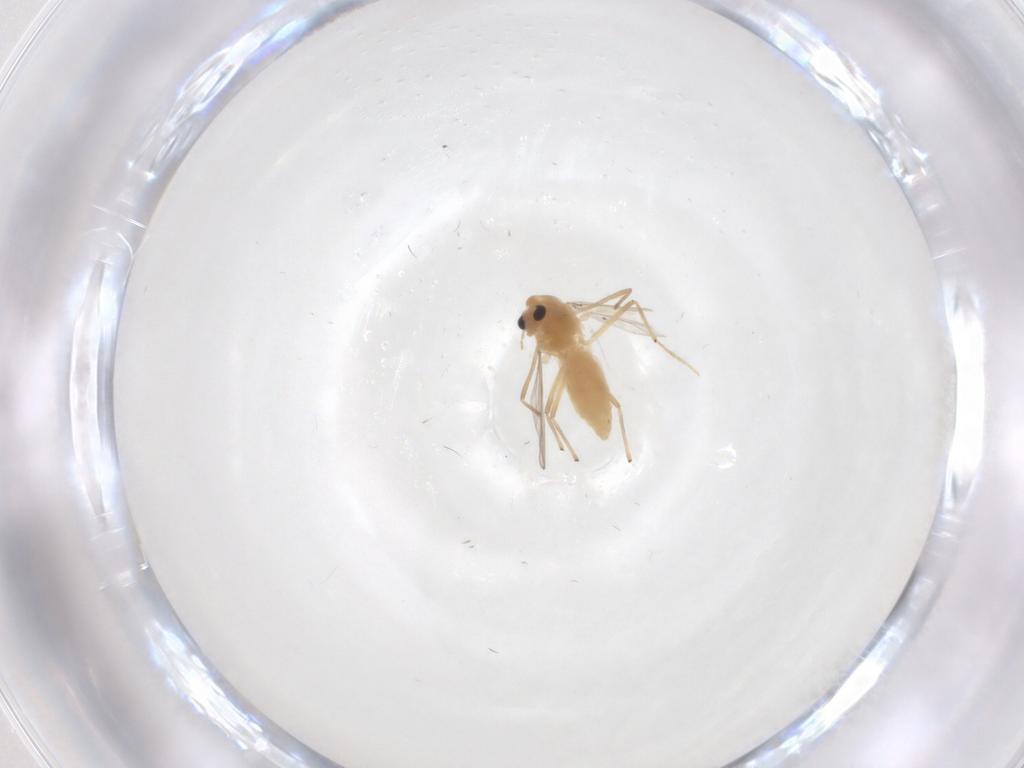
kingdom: Animalia
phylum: Arthropoda
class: Insecta
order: Diptera
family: Chironomidae
